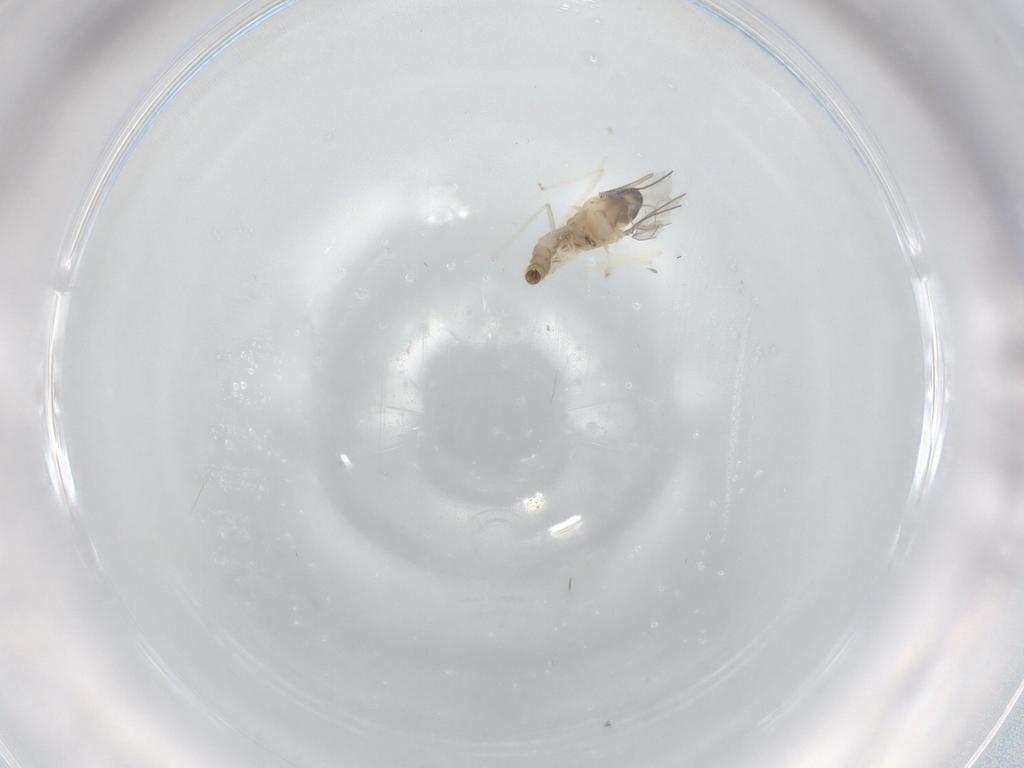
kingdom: Animalia
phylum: Arthropoda
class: Insecta
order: Diptera
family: Cecidomyiidae
